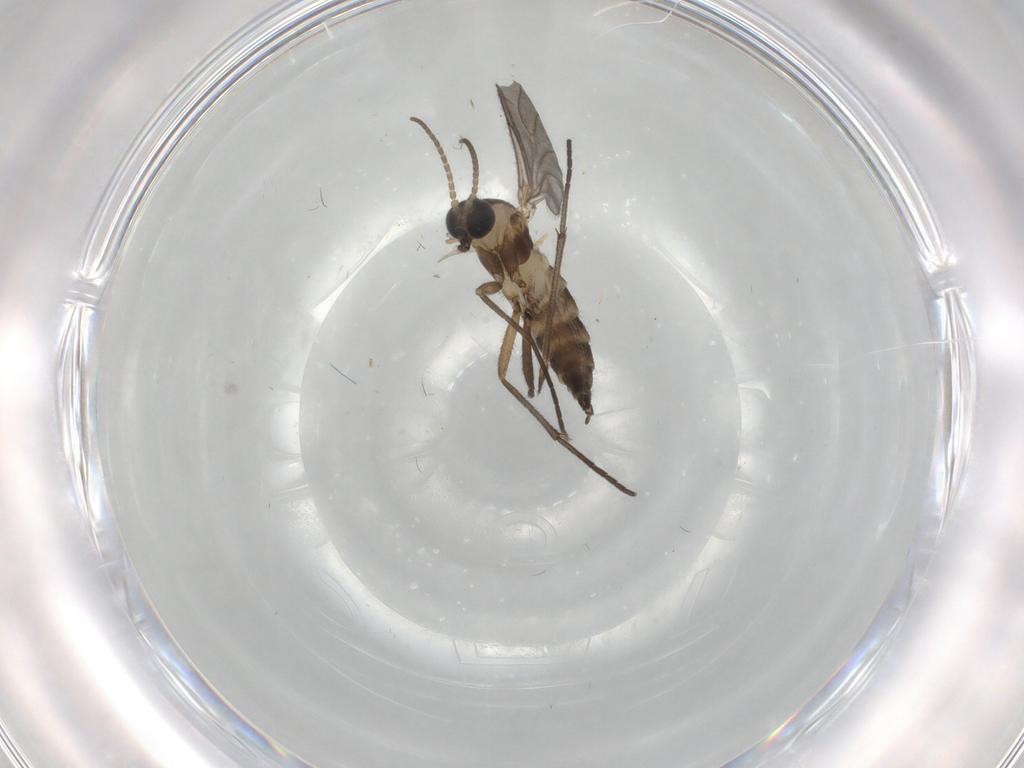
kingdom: Animalia
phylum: Arthropoda
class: Insecta
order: Diptera
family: Sciaridae
